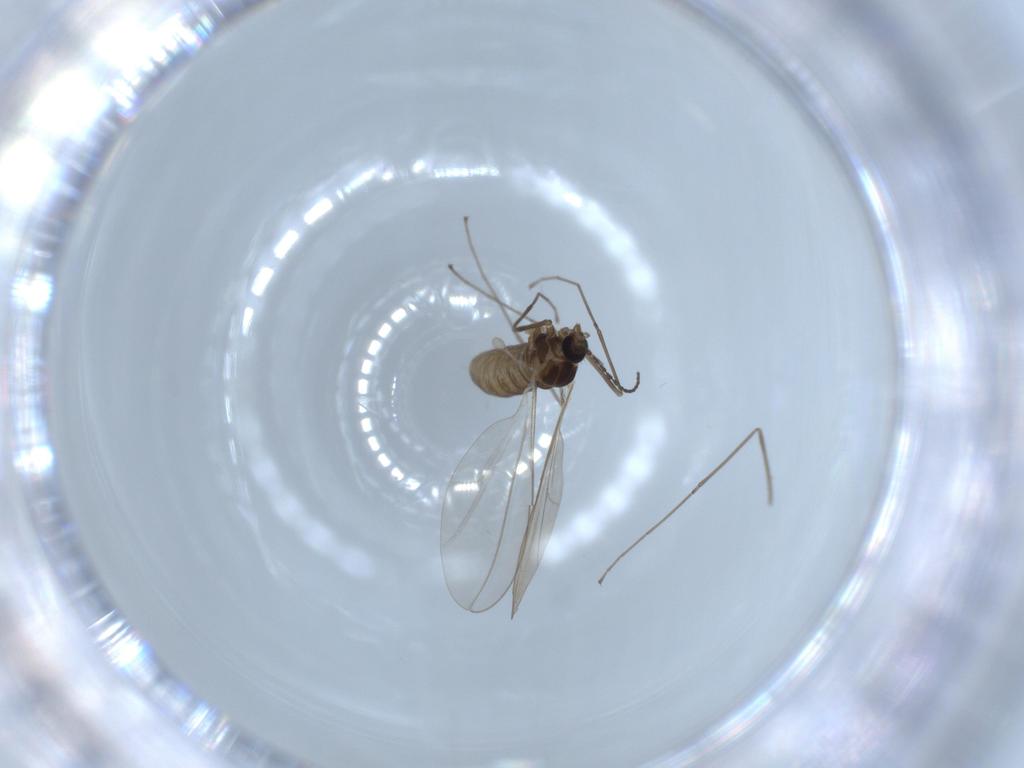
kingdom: Animalia
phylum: Arthropoda
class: Insecta
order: Diptera
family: Cecidomyiidae
